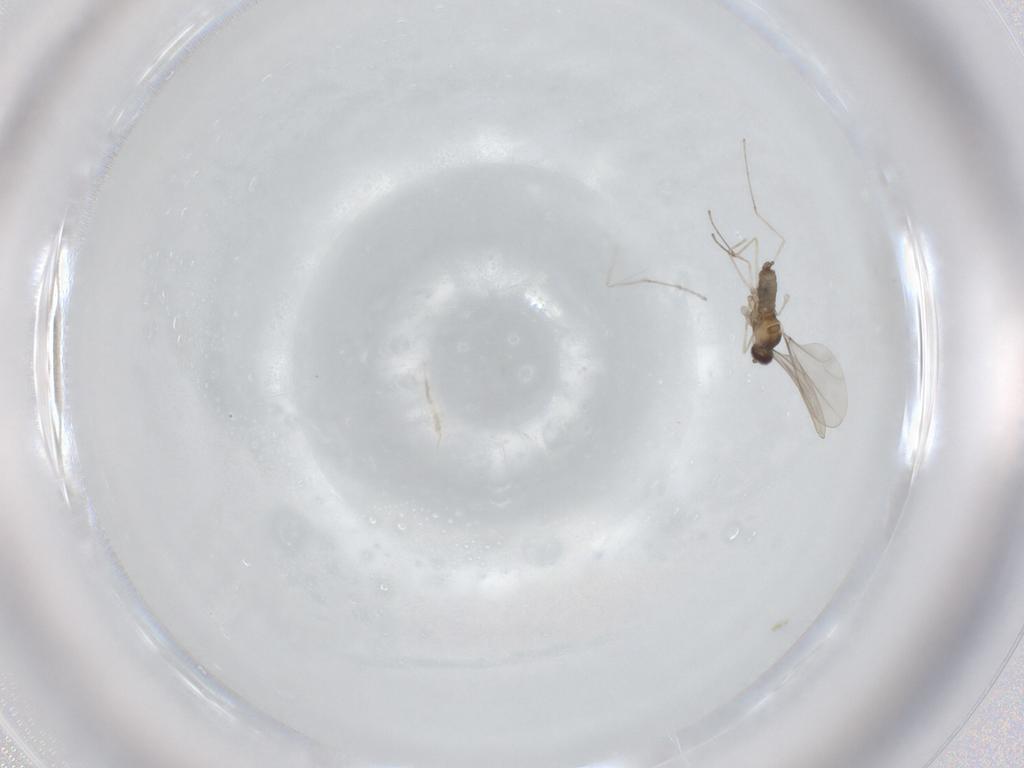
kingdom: Animalia
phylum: Arthropoda
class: Insecta
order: Diptera
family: Cecidomyiidae
